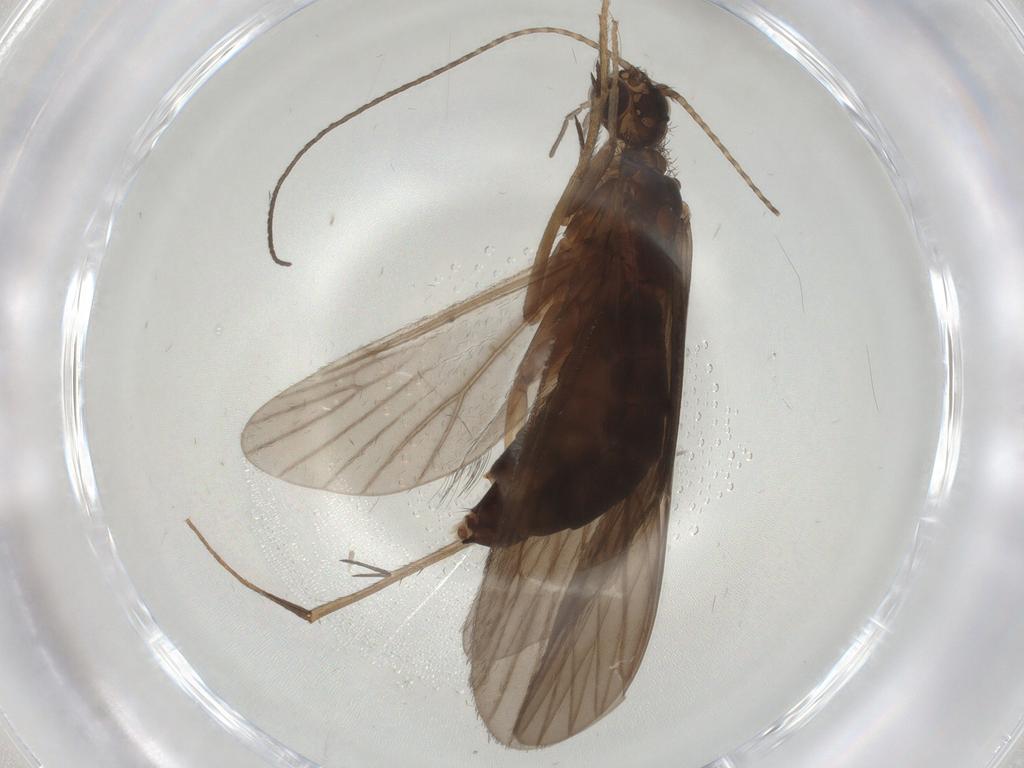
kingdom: Animalia
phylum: Arthropoda
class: Insecta
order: Trichoptera
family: Philopotamidae
